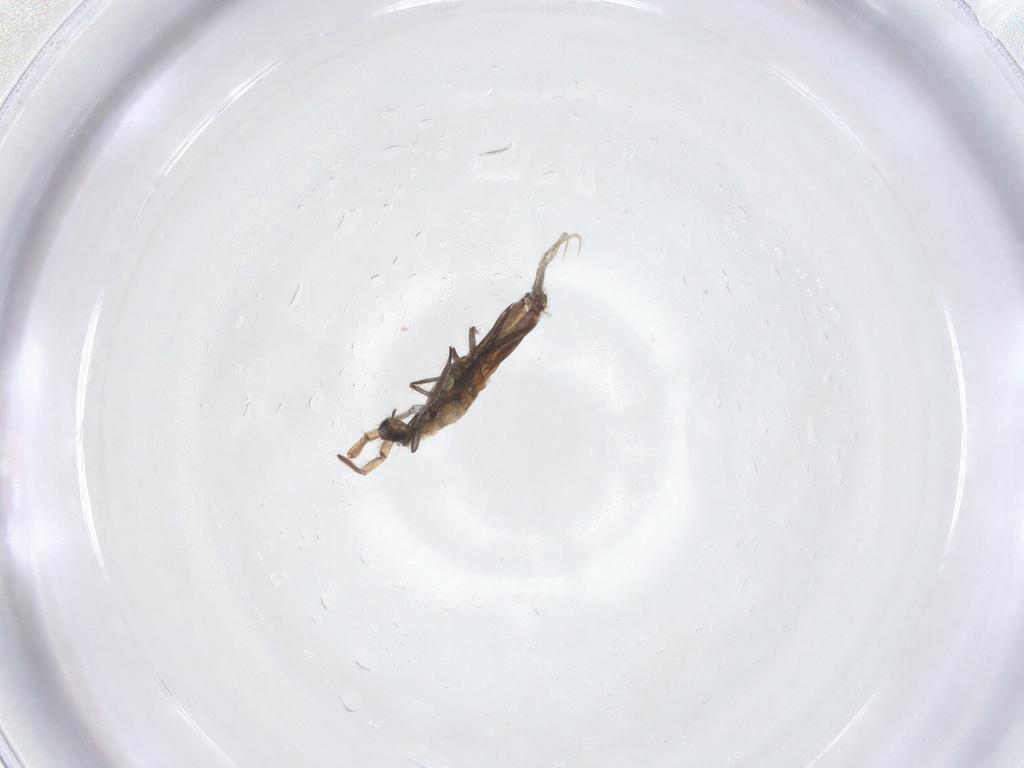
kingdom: Animalia
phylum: Arthropoda
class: Collembola
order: Entomobryomorpha
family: Entomobryidae
